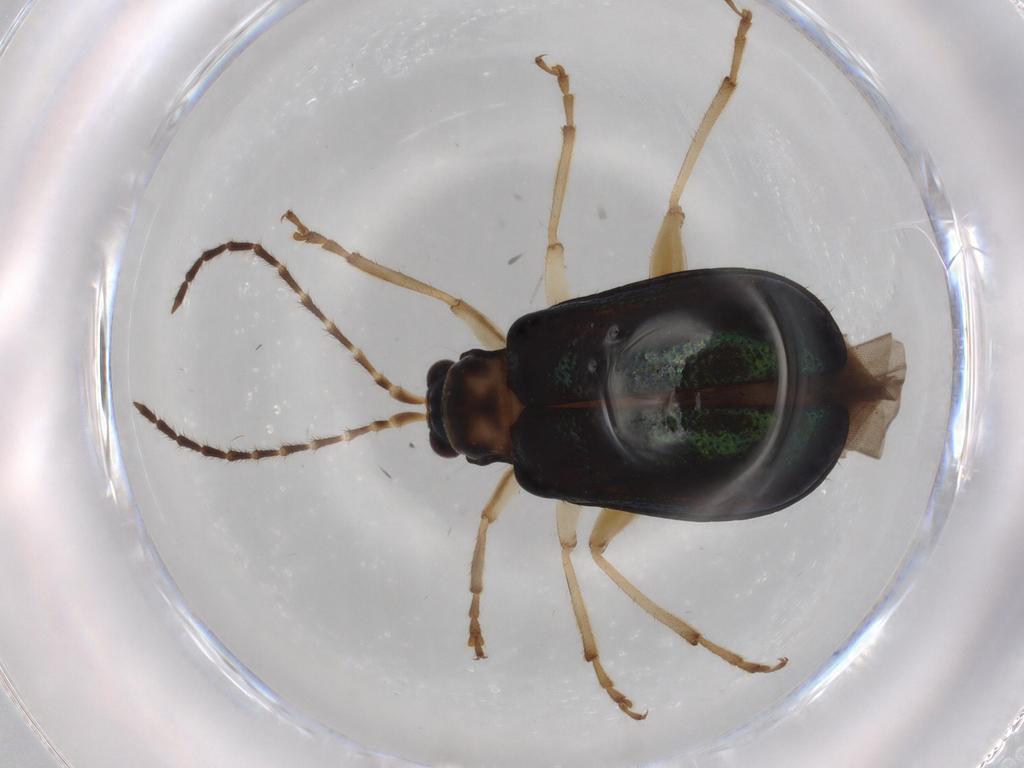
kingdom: Animalia
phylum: Arthropoda
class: Insecta
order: Coleoptera
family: Chrysomelidae
